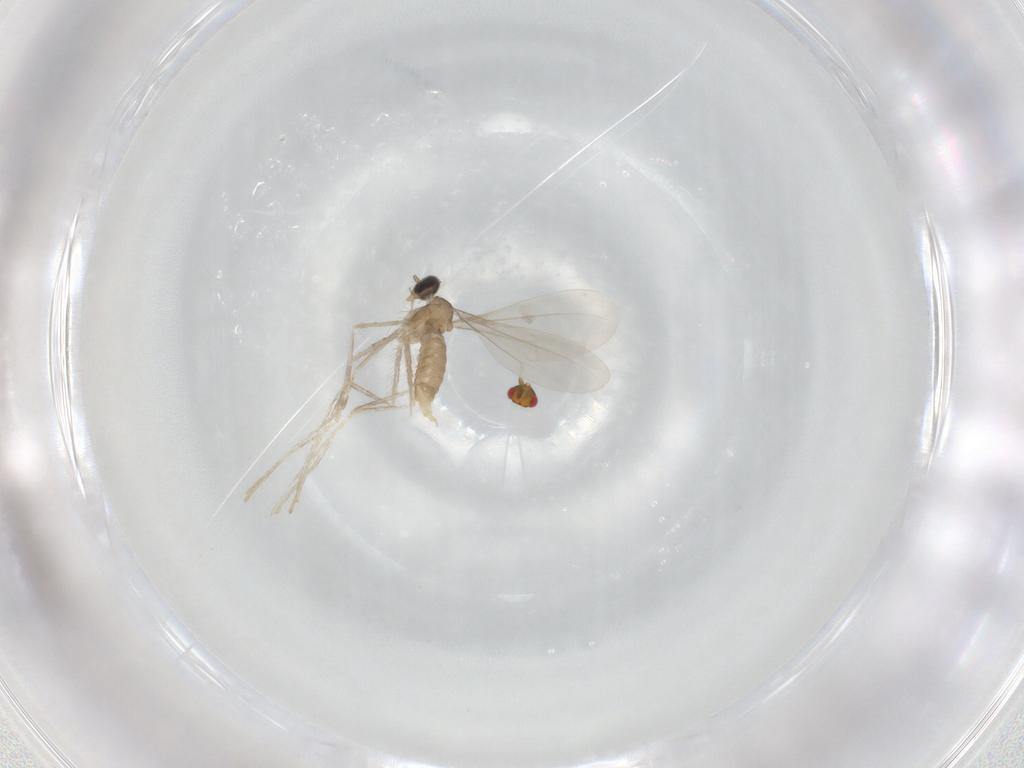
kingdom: Animalia
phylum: Arthropoda
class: Insecta
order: Diptera
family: Cecidomyiidae
